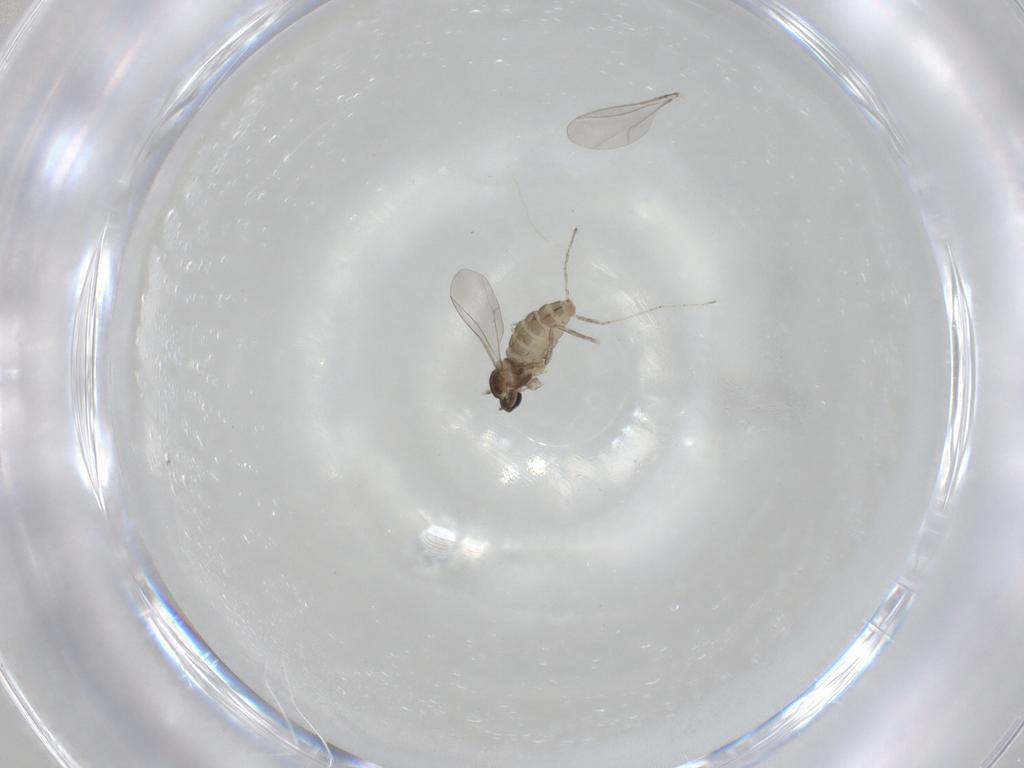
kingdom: Animalia
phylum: Arthropoda
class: Insecta
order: Diptera
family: Cecidomyiidae
